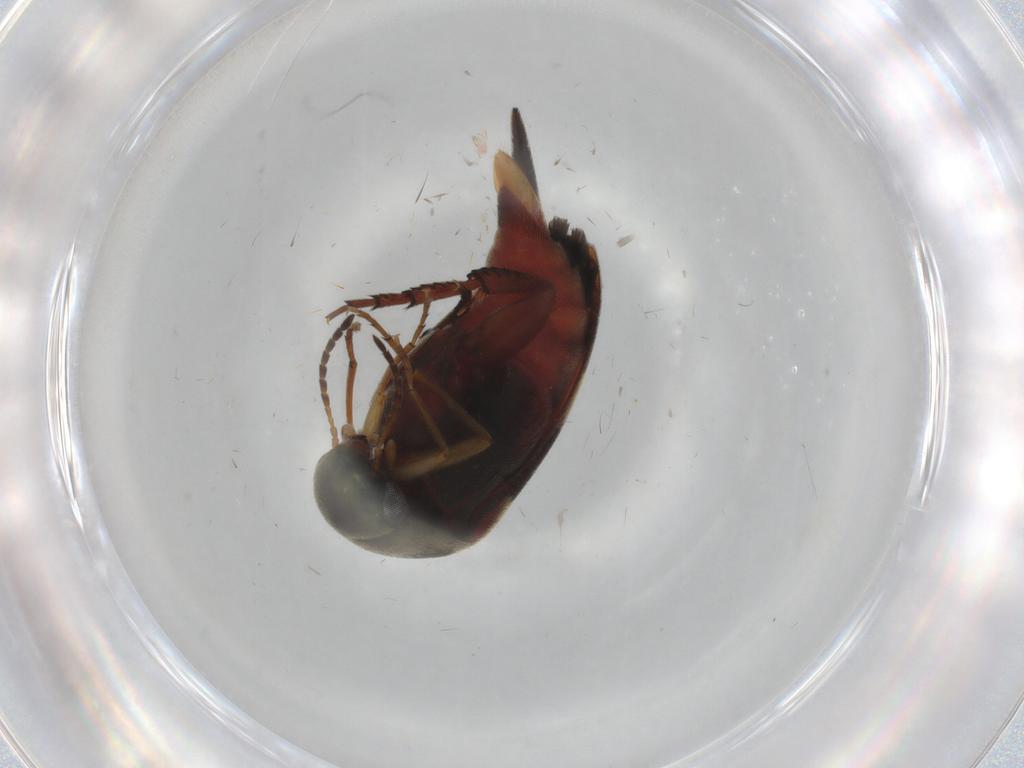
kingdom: Animalia
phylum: Arthropoda
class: Insecta
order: Coleoptera
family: Mordellidae
